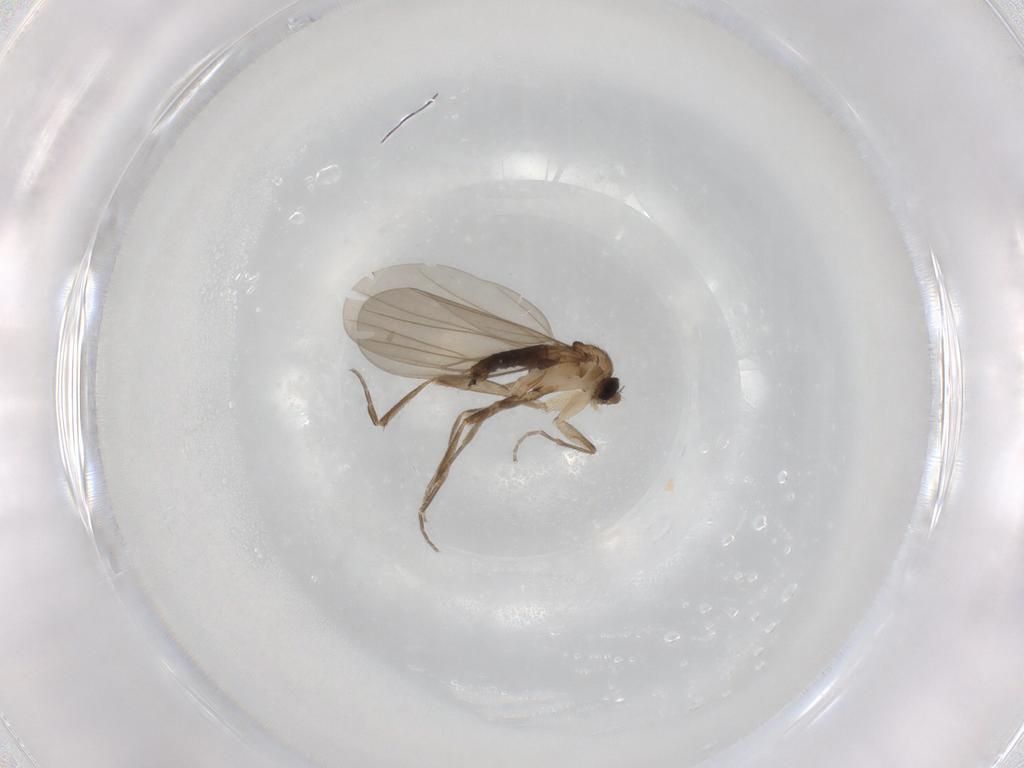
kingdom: Animalia
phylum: Arthropoda
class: Insecta
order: Diptera
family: Phoridae
